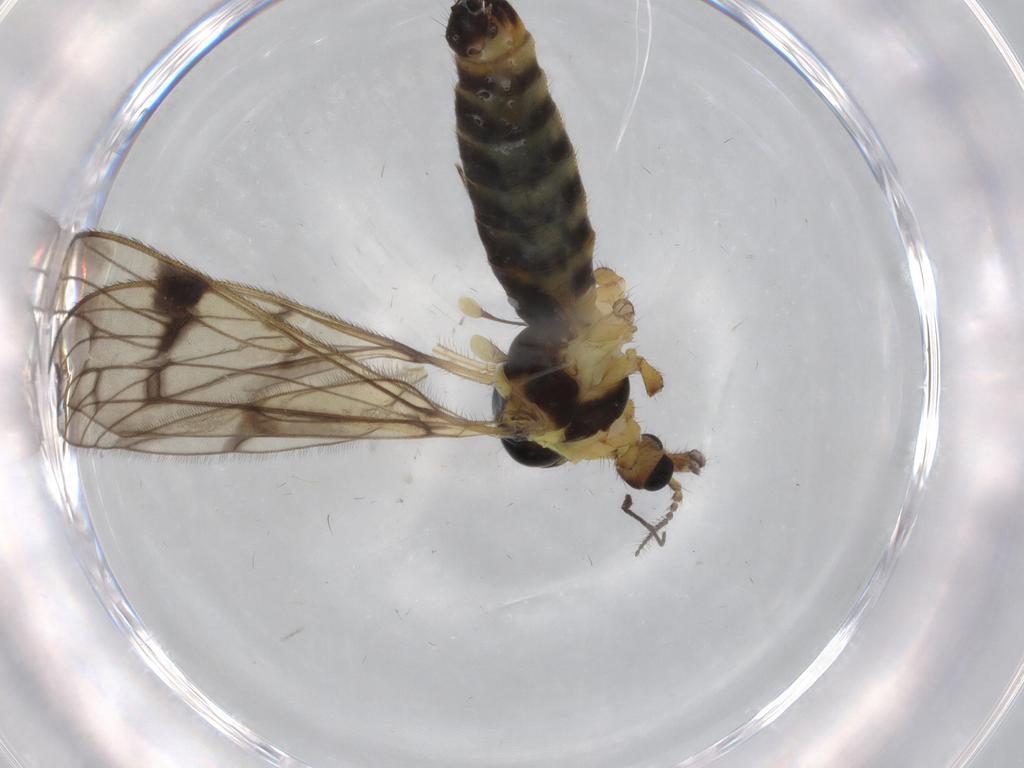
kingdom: Animalia
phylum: Arthropoda
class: Insecta
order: Diptera
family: Limoniidae
